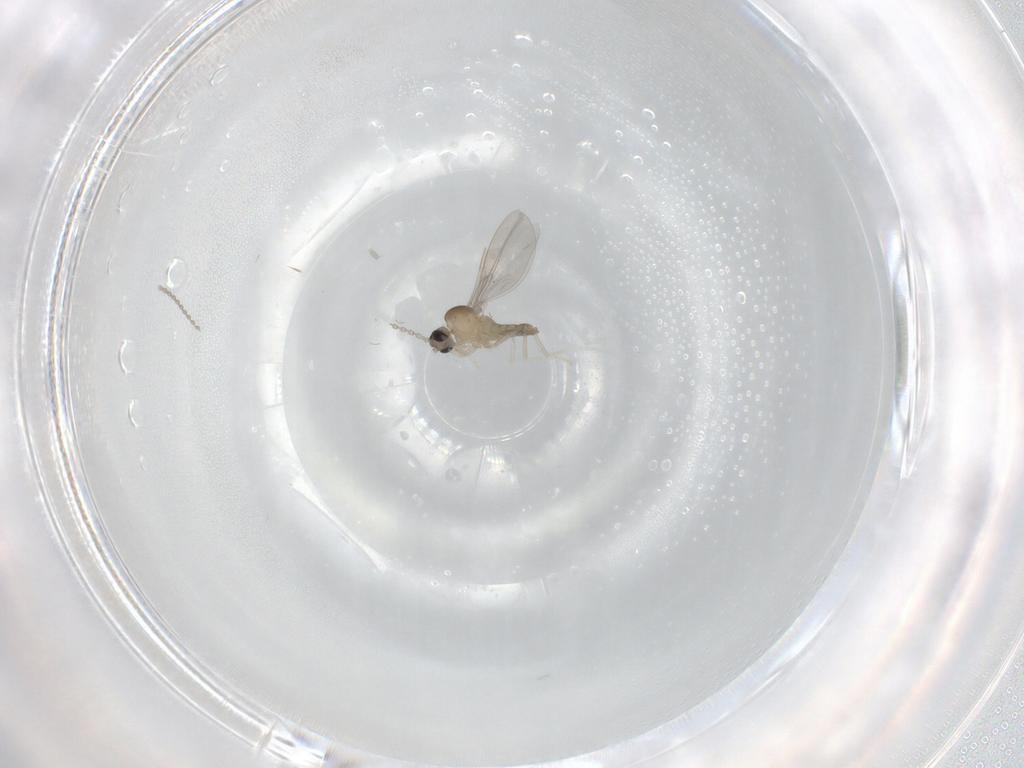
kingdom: Animalia
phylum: Arthropoda
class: Insecta
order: Diptera
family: Cecidomyiidae
